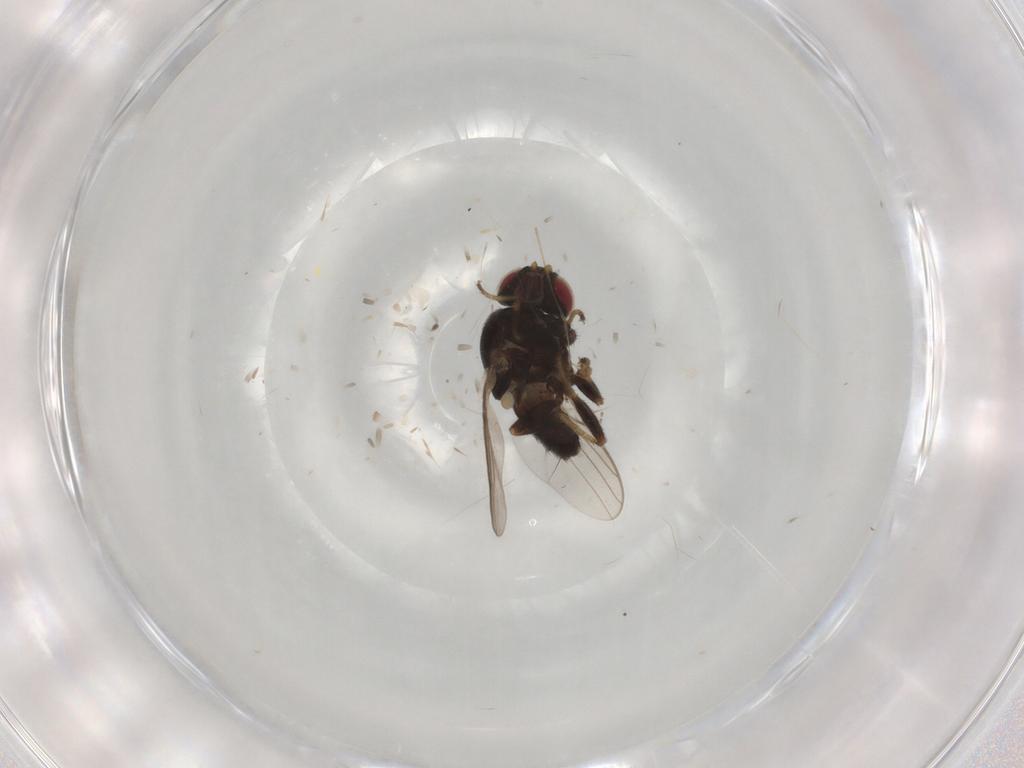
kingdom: Animalia
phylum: Arthropoda
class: Insecta
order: Diptera
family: Chloropidae
